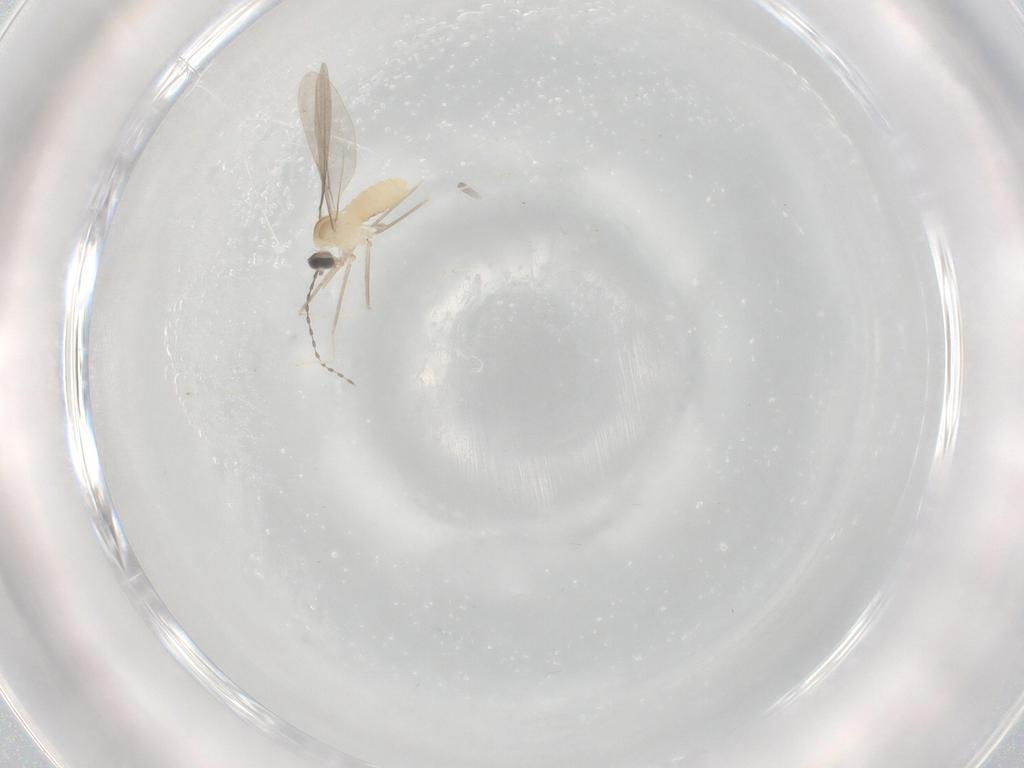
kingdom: Animalia
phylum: Arthropoda
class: Insecta
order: Diptera
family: Cecidomyiidae
